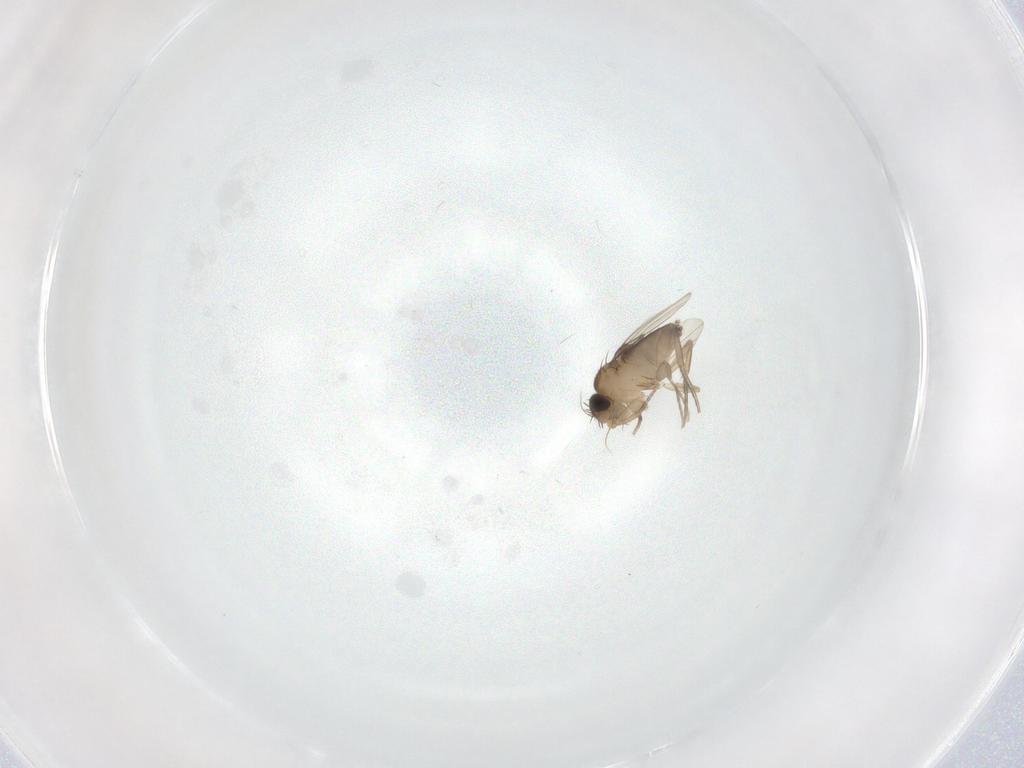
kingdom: Animalia
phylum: Arthropoda
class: Insecta
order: Diptera
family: Phoridae
